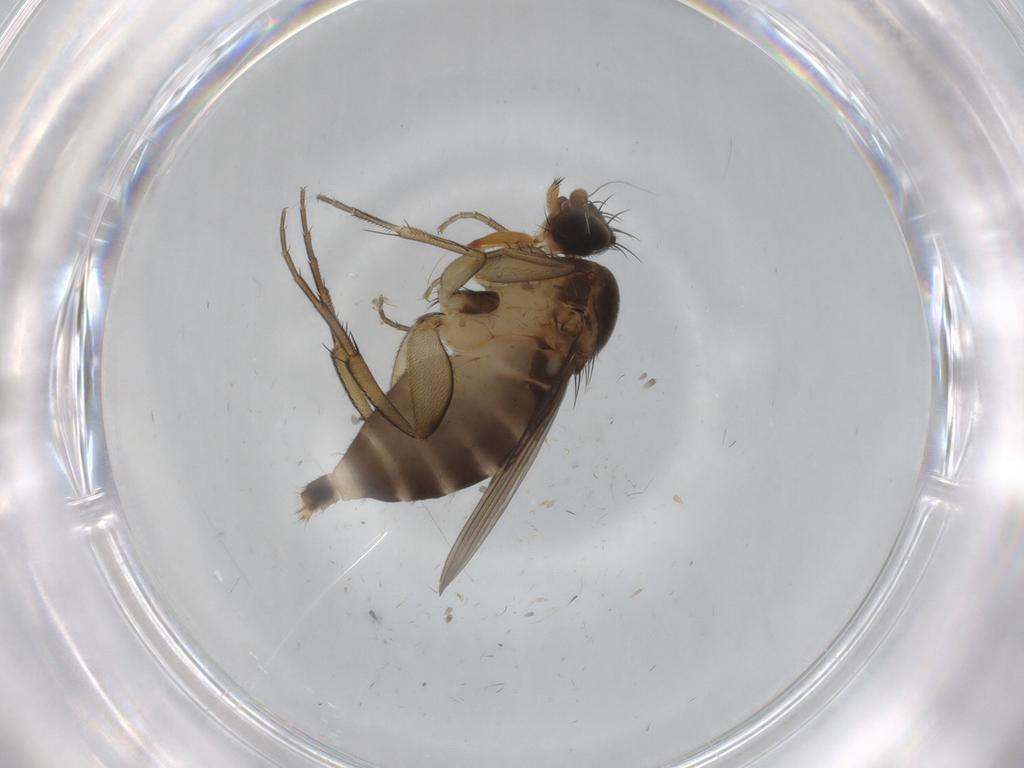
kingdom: Animalia
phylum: Arthropoda
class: Insecta
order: Diptera
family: Phoridae
